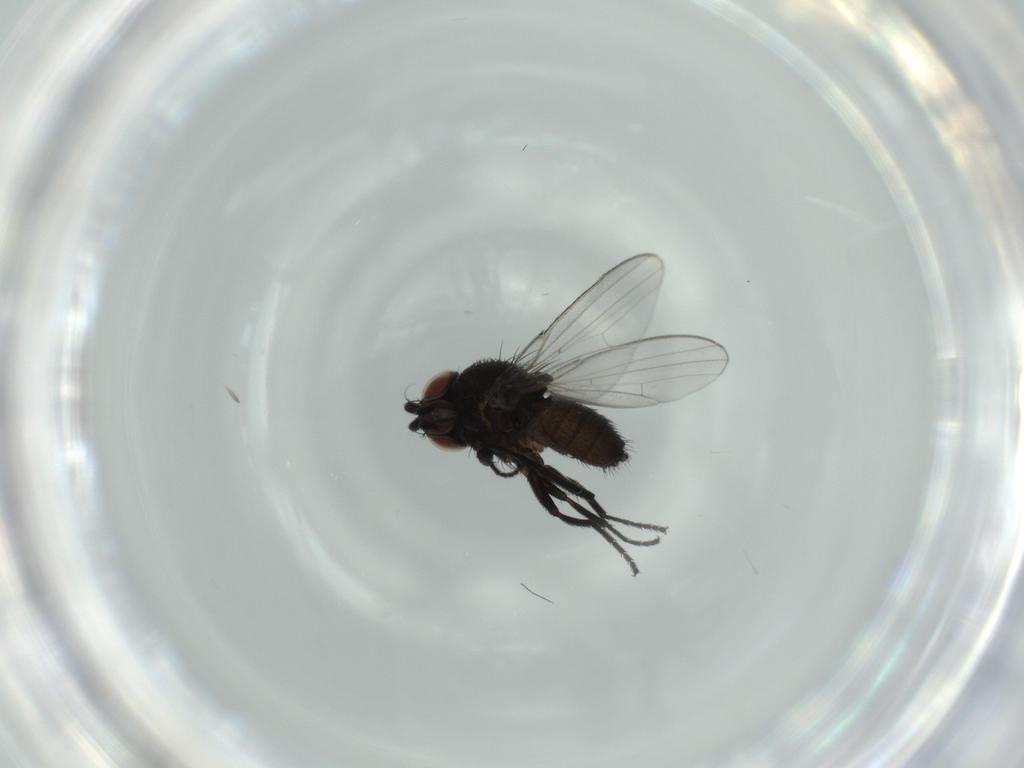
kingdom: Animalia
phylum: Arthropoda
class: Insecta
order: Diptera
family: Milichiidae
